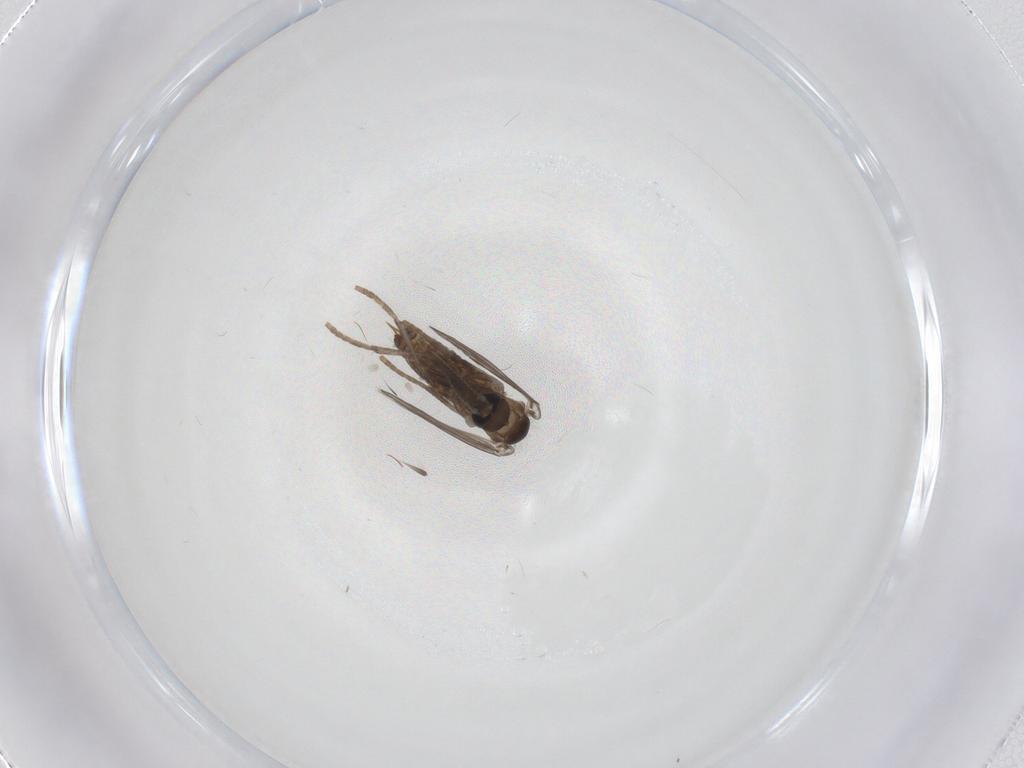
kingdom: Animalia
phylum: Arthropoda
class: Insecta
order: Diptera
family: Psychodidae
